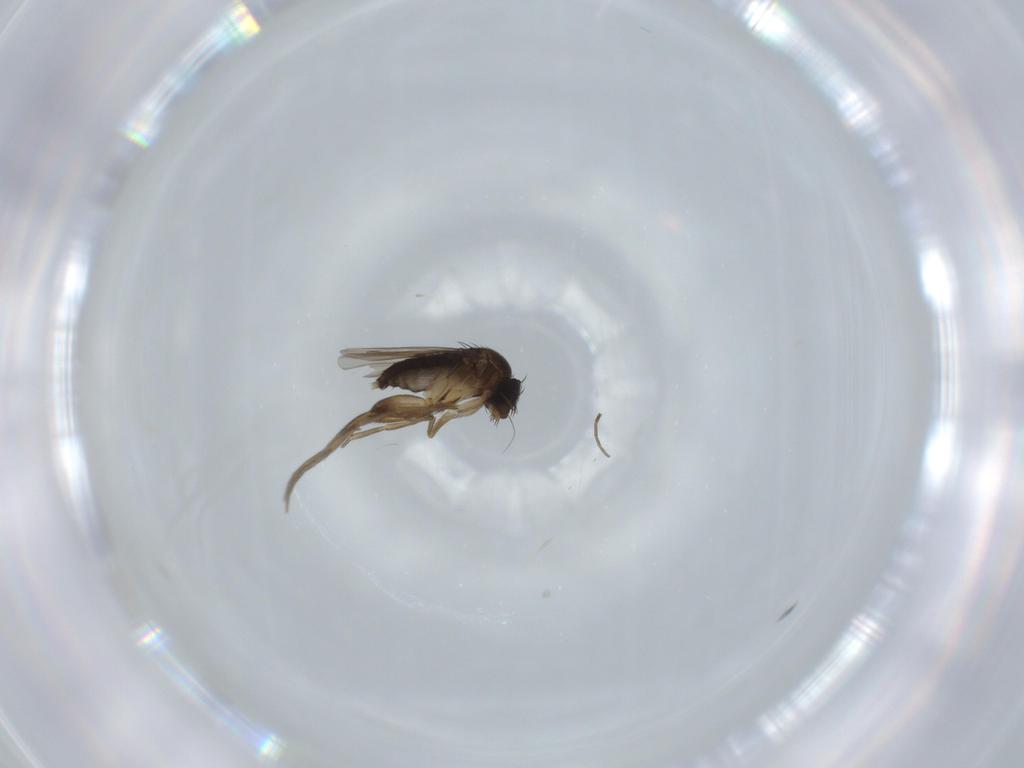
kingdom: Animalia
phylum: Arthropoda
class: Insecta
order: Diptera
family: Phoridae
